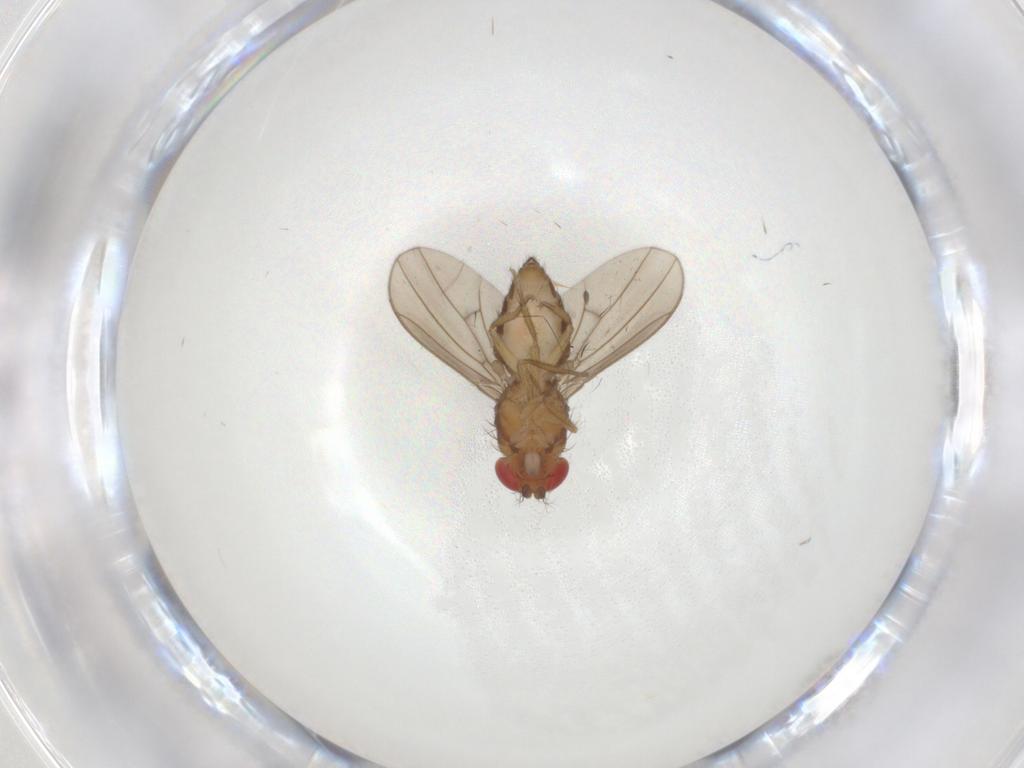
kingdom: Animalia
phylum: Arthropoda
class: Insecta
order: Diptera
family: Drosophilidae
